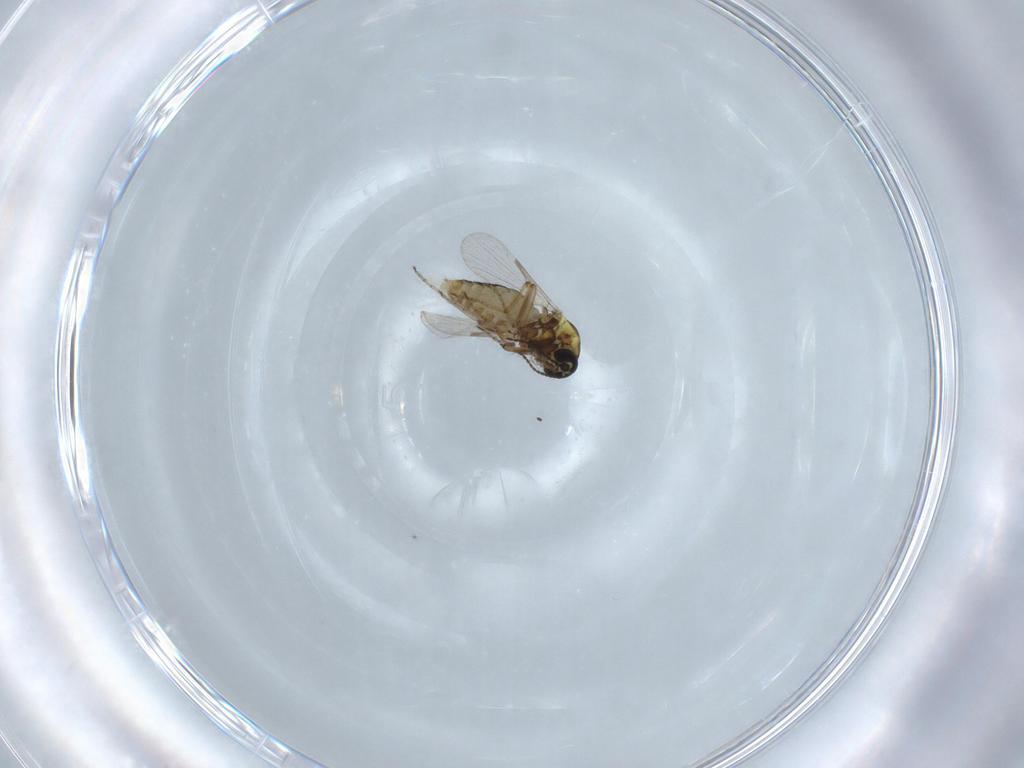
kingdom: Animalia
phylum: Arthropoda
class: Insecta
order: Diptera
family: Ceratopogonidae
